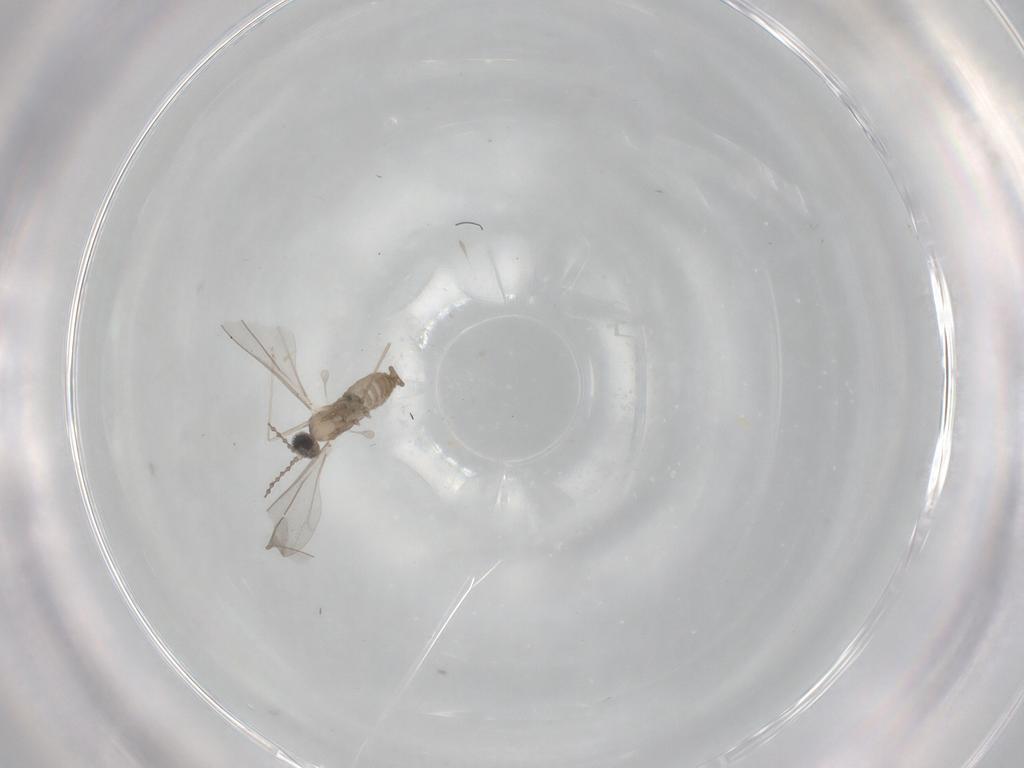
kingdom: Animalia
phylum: Arthropoda
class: Insecta
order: Diptera
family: Cecidomyiidae
